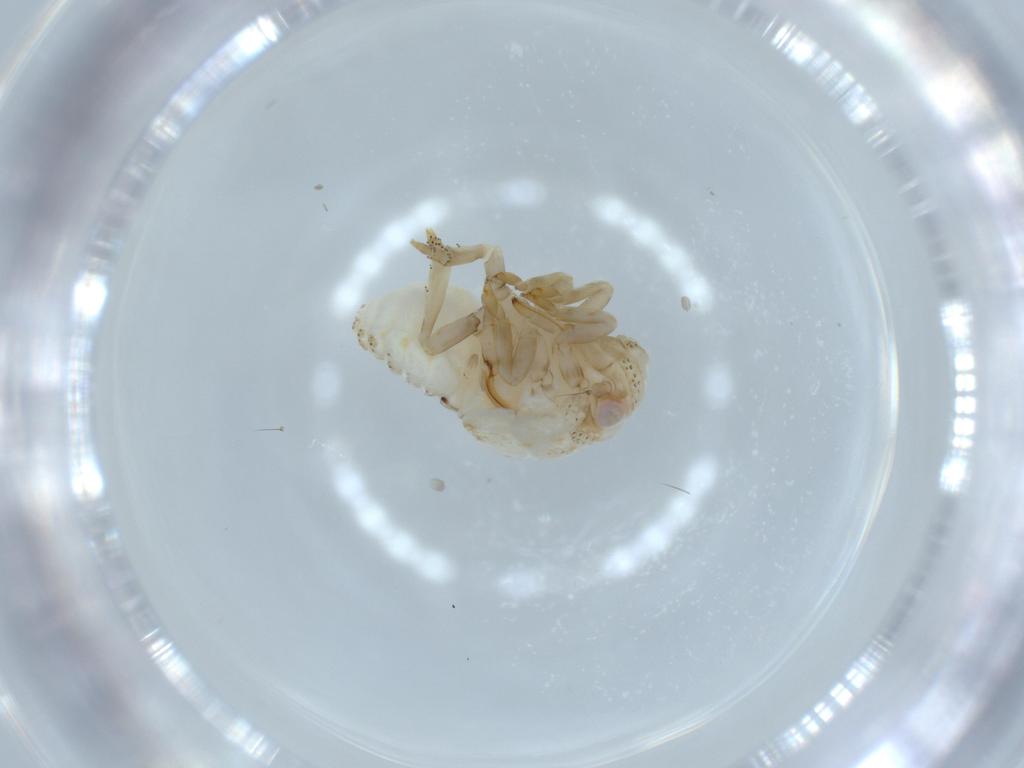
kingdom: Animalia
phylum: Arthropoda
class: Insecta
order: Hemiptera
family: Acanaloniidae
